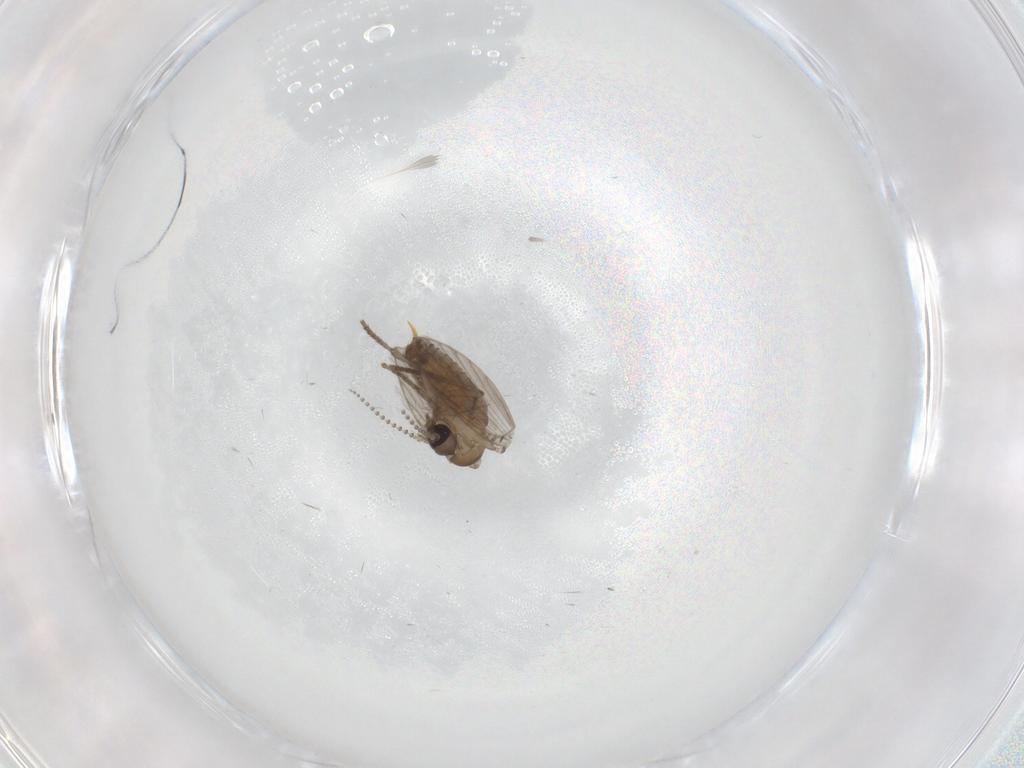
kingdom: Animalia
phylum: Arthropoda
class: Insecta
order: Diptera
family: Psychodidae
